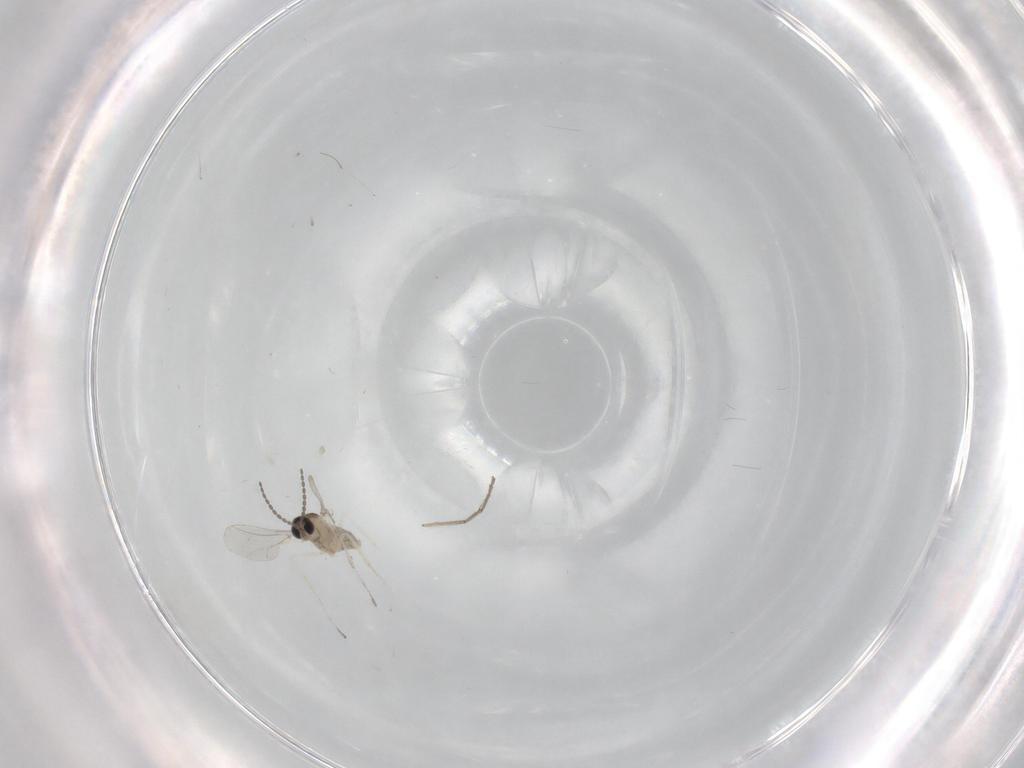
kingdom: Animalia
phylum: Arthropoda
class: Insecta
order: Diptera
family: Cecidomyiidae
